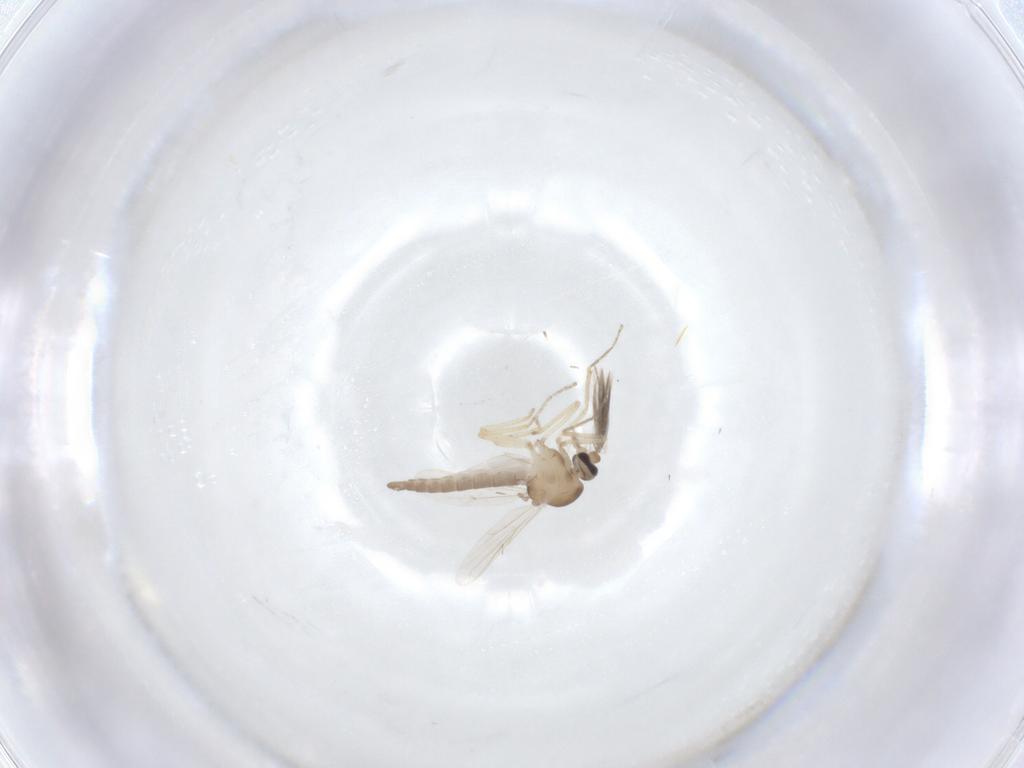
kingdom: Animalia
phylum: Arthropoda
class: Insecta
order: Diptera
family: Ceratopogonidae
